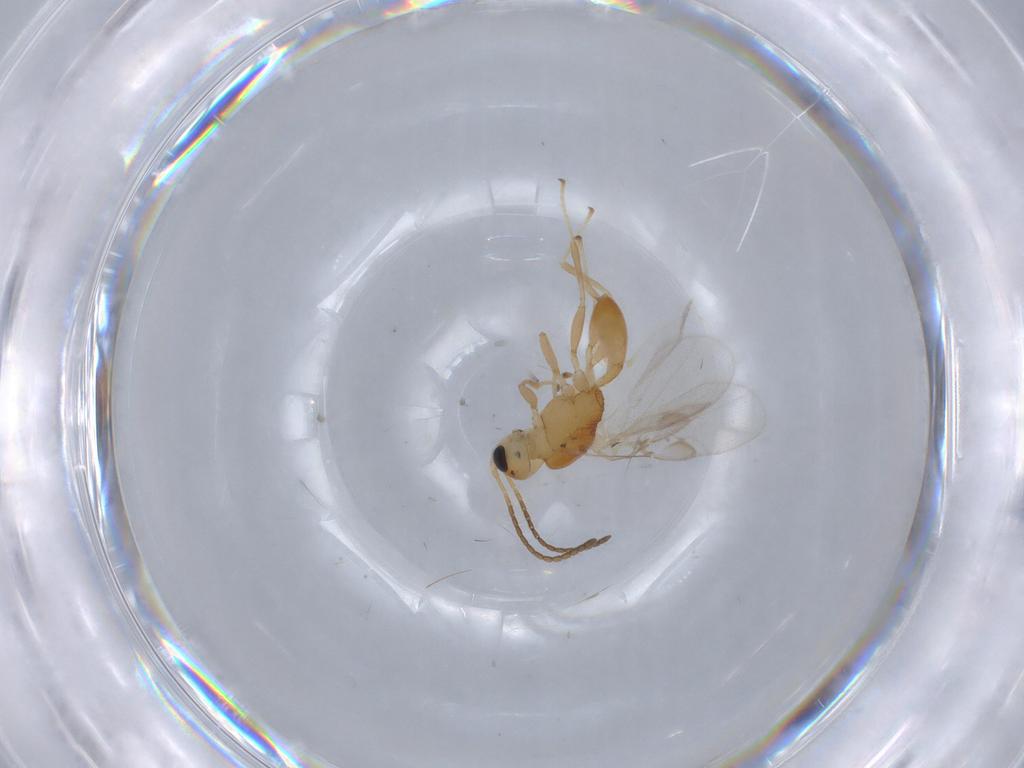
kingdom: Animalia
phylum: Arthropoda
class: Insecta
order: Hymenoptera
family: Braconidae
